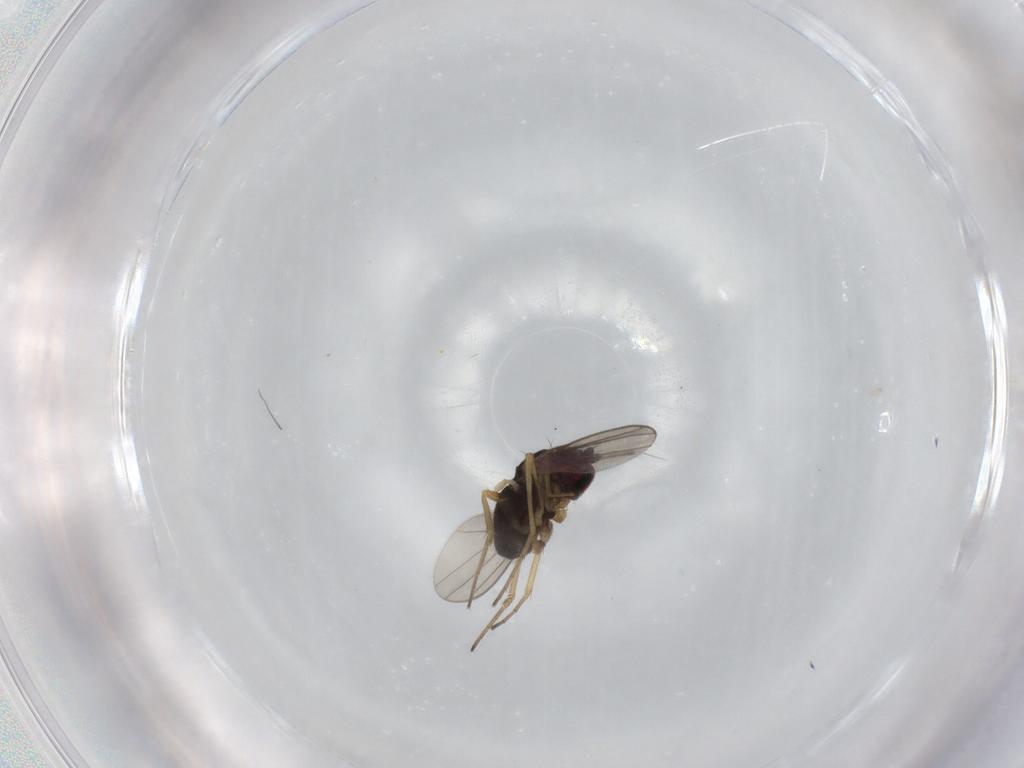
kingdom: Animalia
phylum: Arthropoda
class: Insecta
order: Diptera
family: Dolichopodidae
